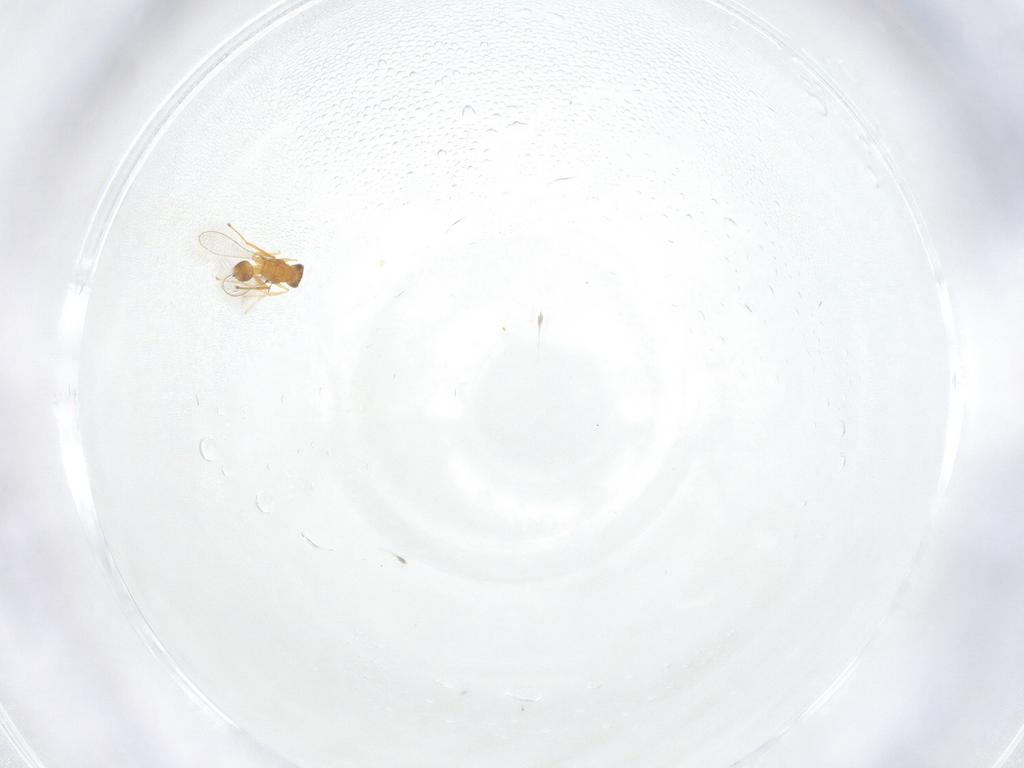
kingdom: Animalia
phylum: Arthropoda
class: Insecta
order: Hymenoptera
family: Mymaridae
